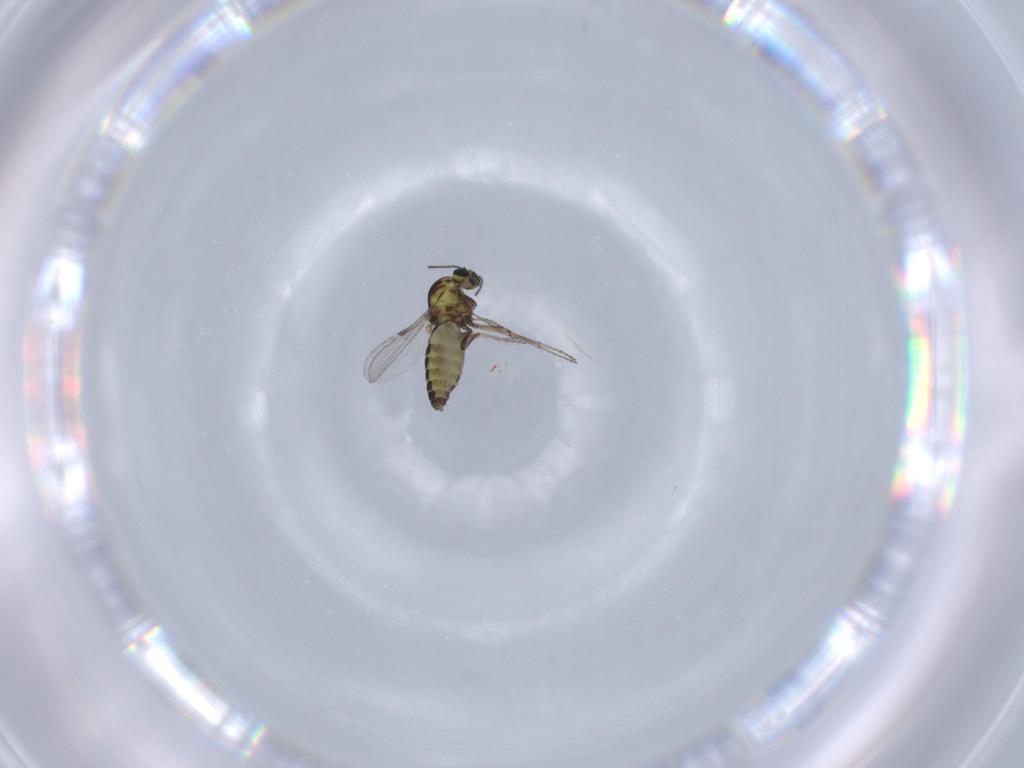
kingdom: Animalia
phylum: Arthropoda
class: Insecta
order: Diptera
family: Ceratopogonidae
